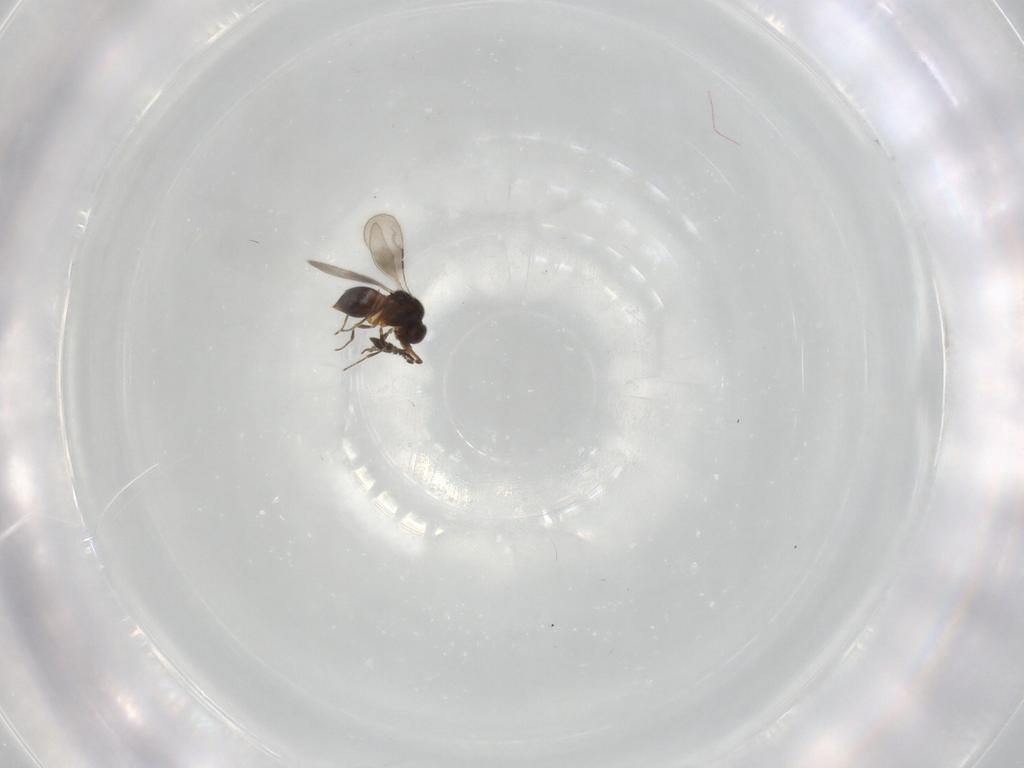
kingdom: Animalia
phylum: Arthropoda
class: Insecta
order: Hymenoptera
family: Ceraphronidae
